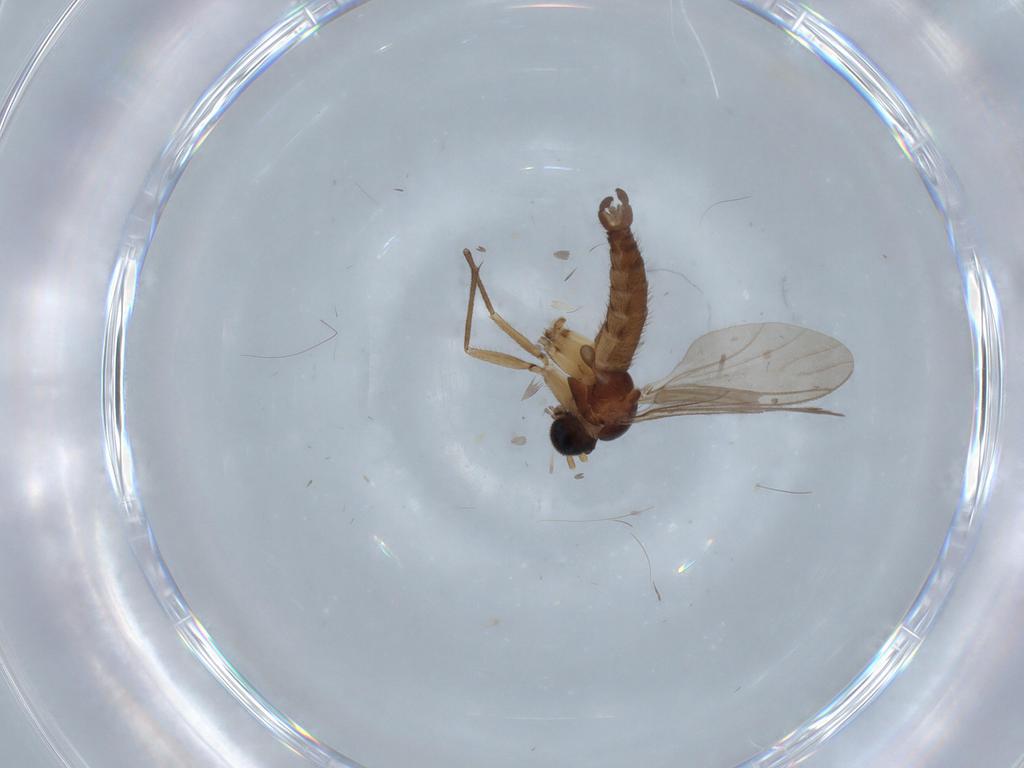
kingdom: Animalia
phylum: Arthropoda
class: Insecta
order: Diptera
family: Sciaridae
